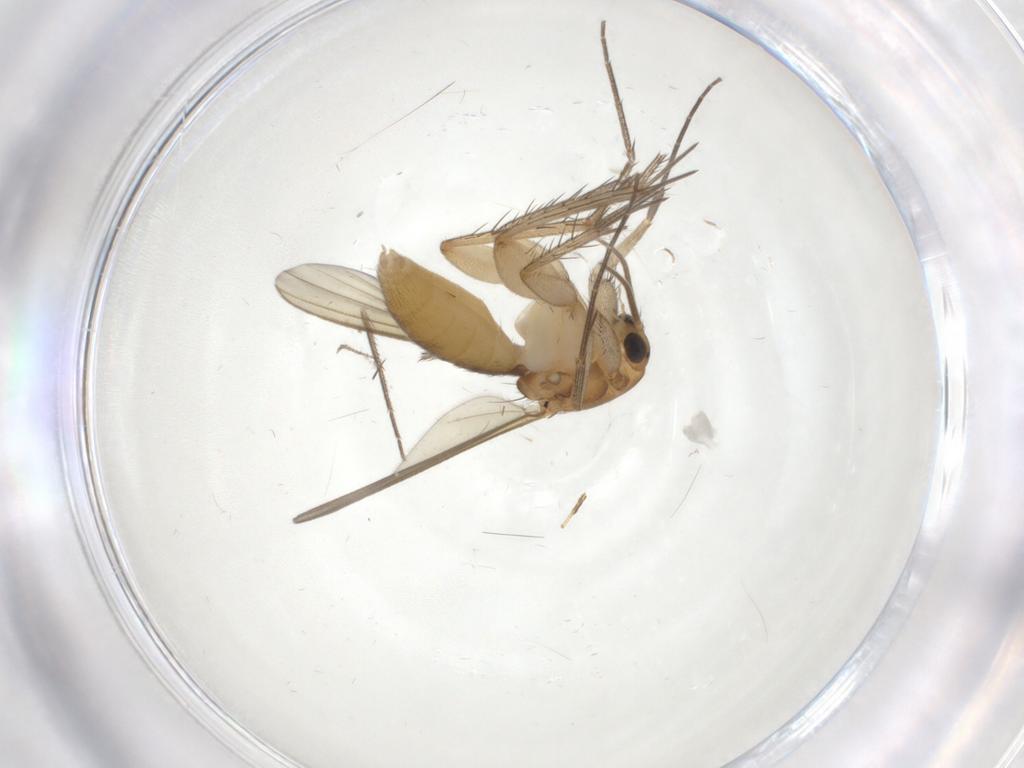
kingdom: Animalia
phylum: Arthropoda
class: Insecta
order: Diptera
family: Mycetophilidae
